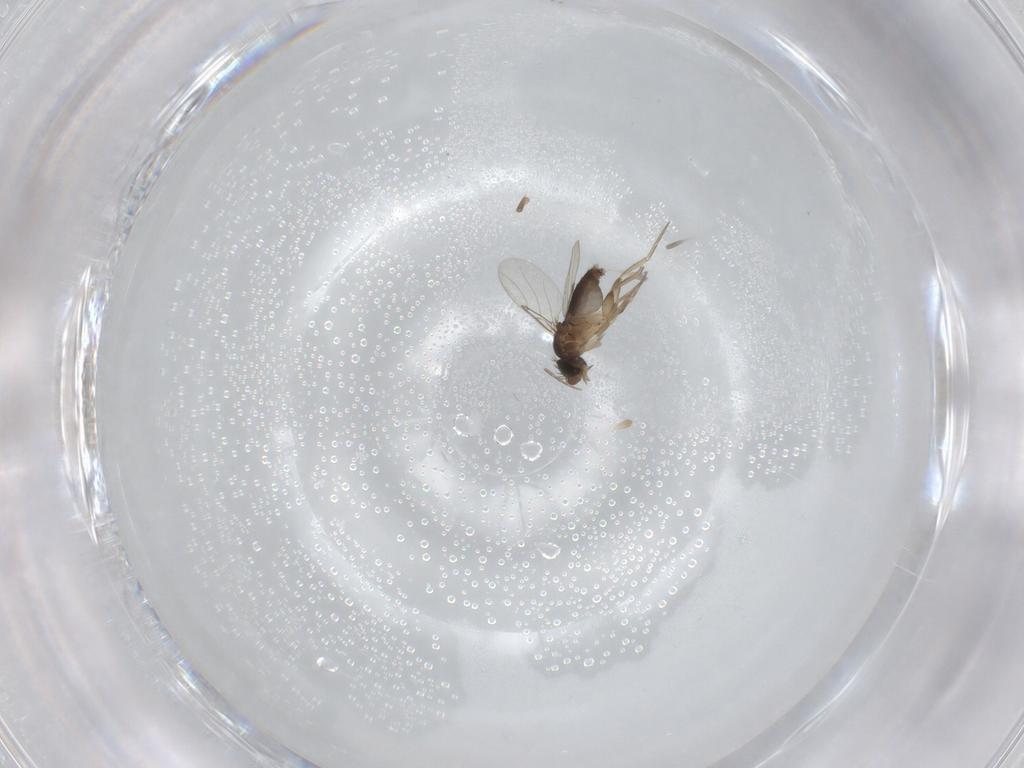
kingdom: Animalia
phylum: Arthropoda
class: Insecta
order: Diptera
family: Phoridae
